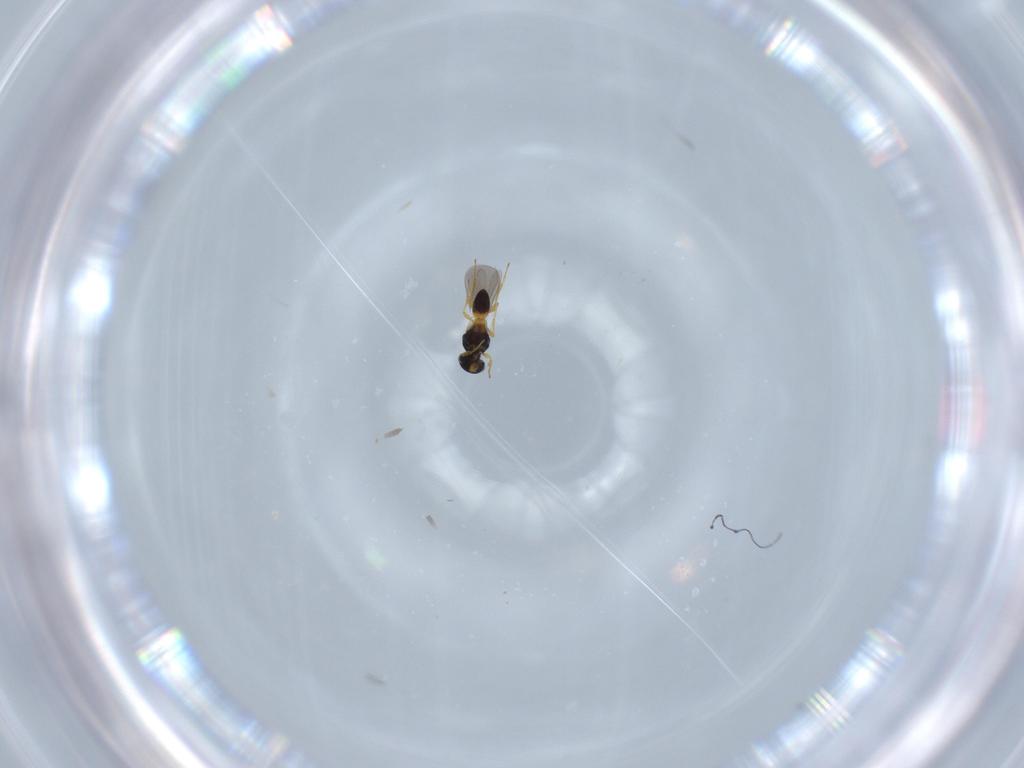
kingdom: Animalia
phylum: Arthropoda
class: Insecta
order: Hymenoptera
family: Platygastridae
